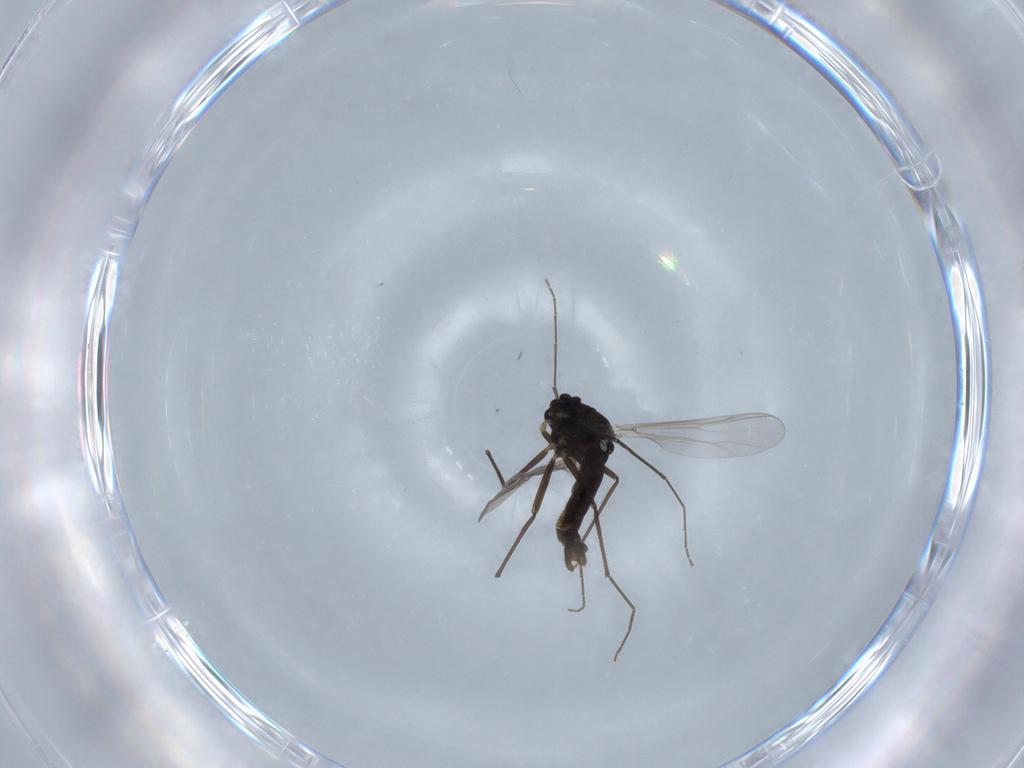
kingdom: Animalia
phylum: Arthropoda
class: Insecta
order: Diptera
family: Chironomidae
